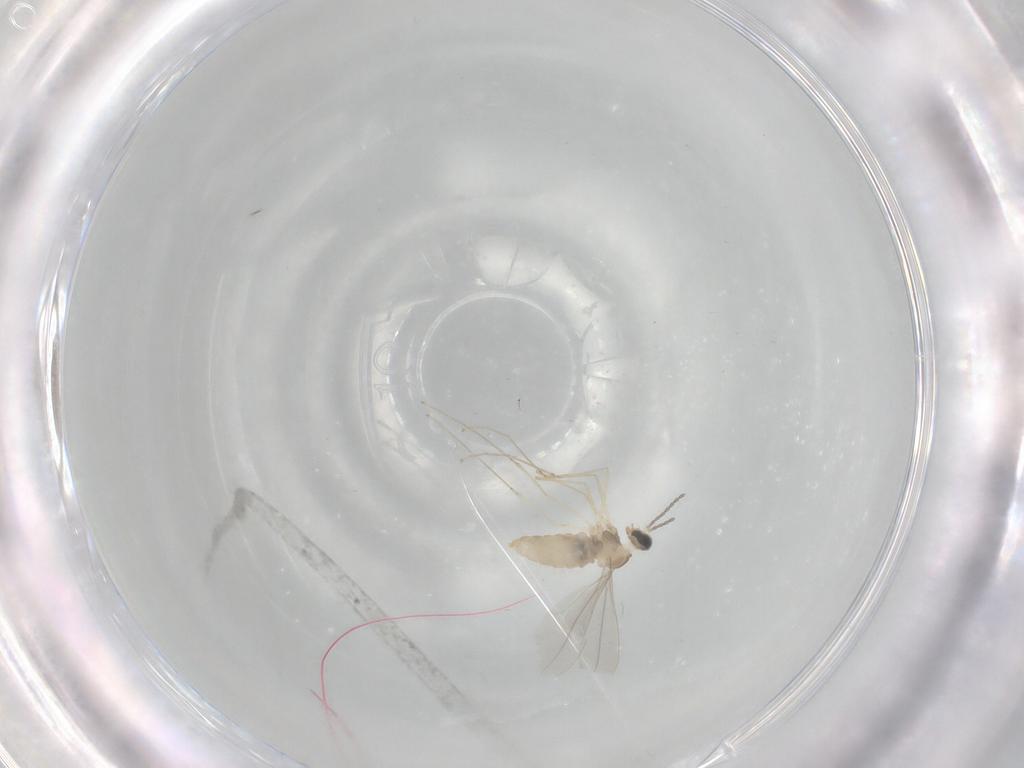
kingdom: Animalia
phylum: Arthropoda
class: Insecta
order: Diptera
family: Cecidomyiidae
